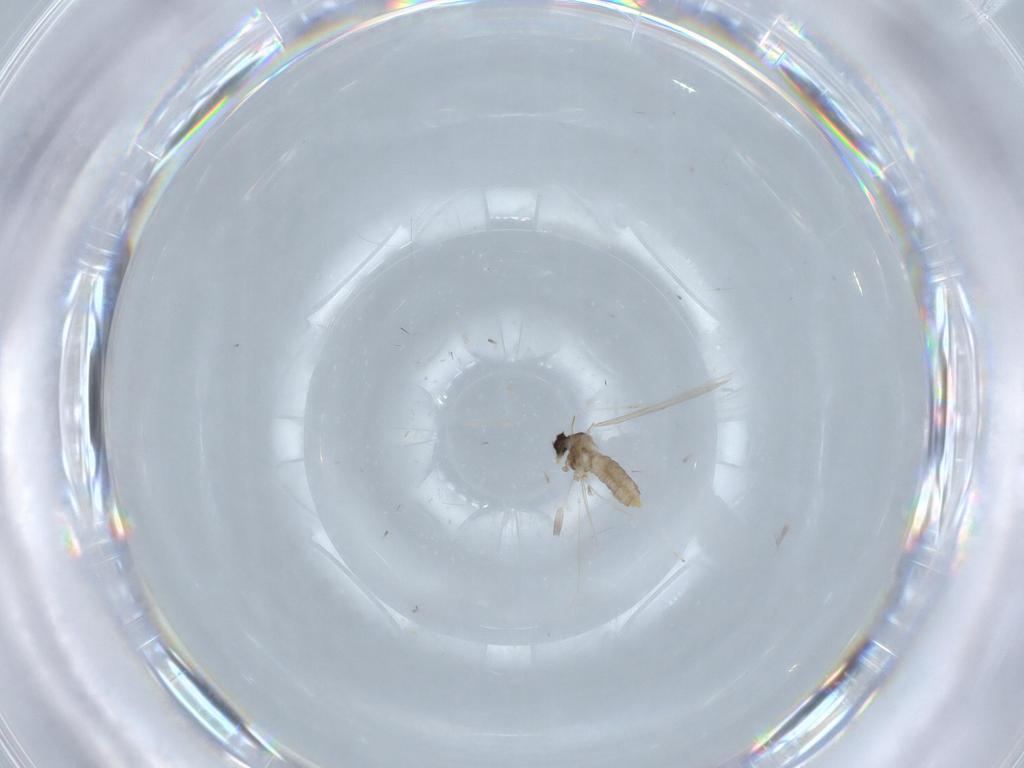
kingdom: Animalia
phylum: Arthropoda
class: Insecta
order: Diptera
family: Cecidomyiidae
